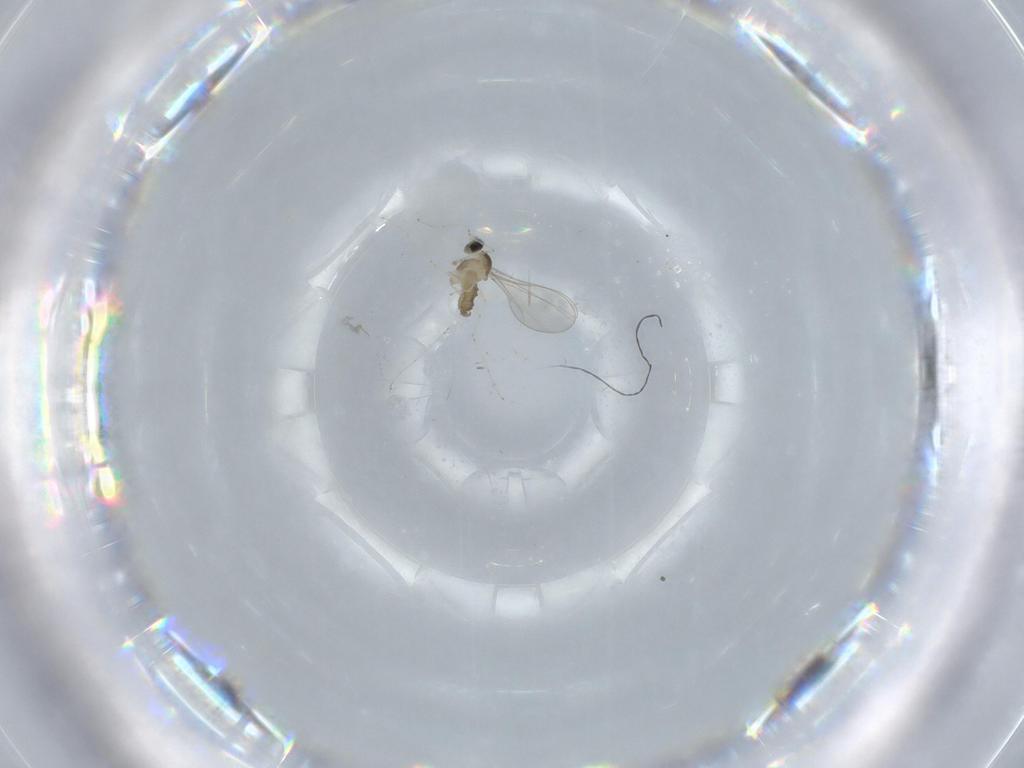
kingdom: Animalia
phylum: Arthropoda
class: Insecta
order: Diptera
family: Cecidomyiidae
